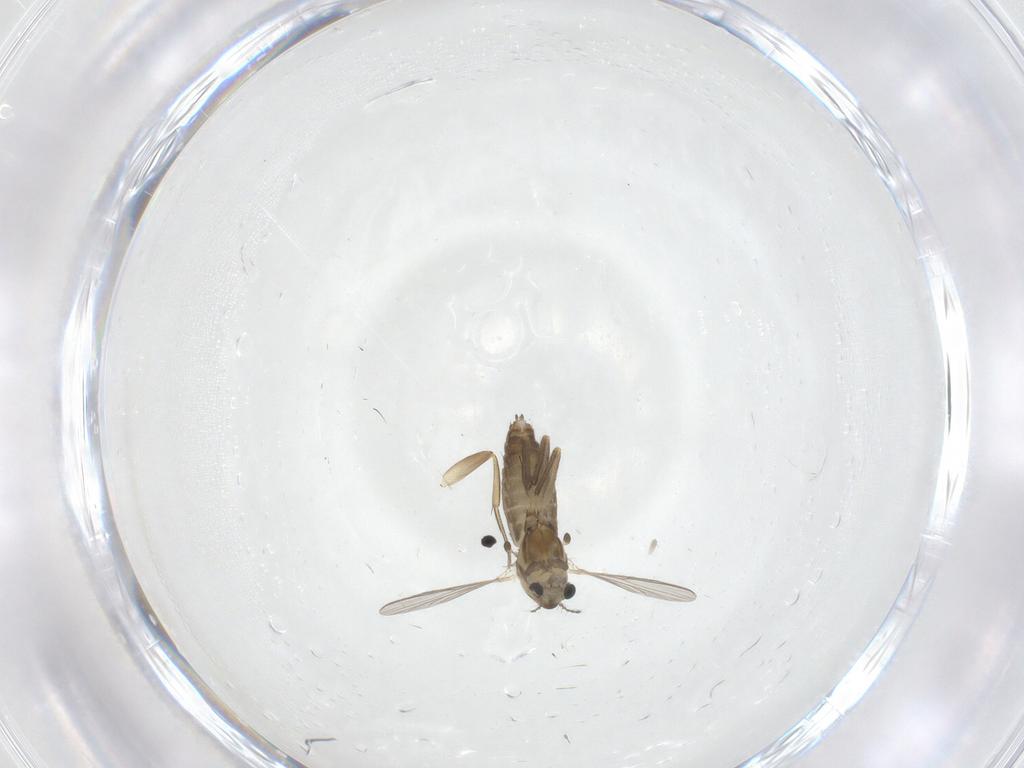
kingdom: Animalia
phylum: Arthropoda
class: Insecta
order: Diptera
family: Chironomidae
